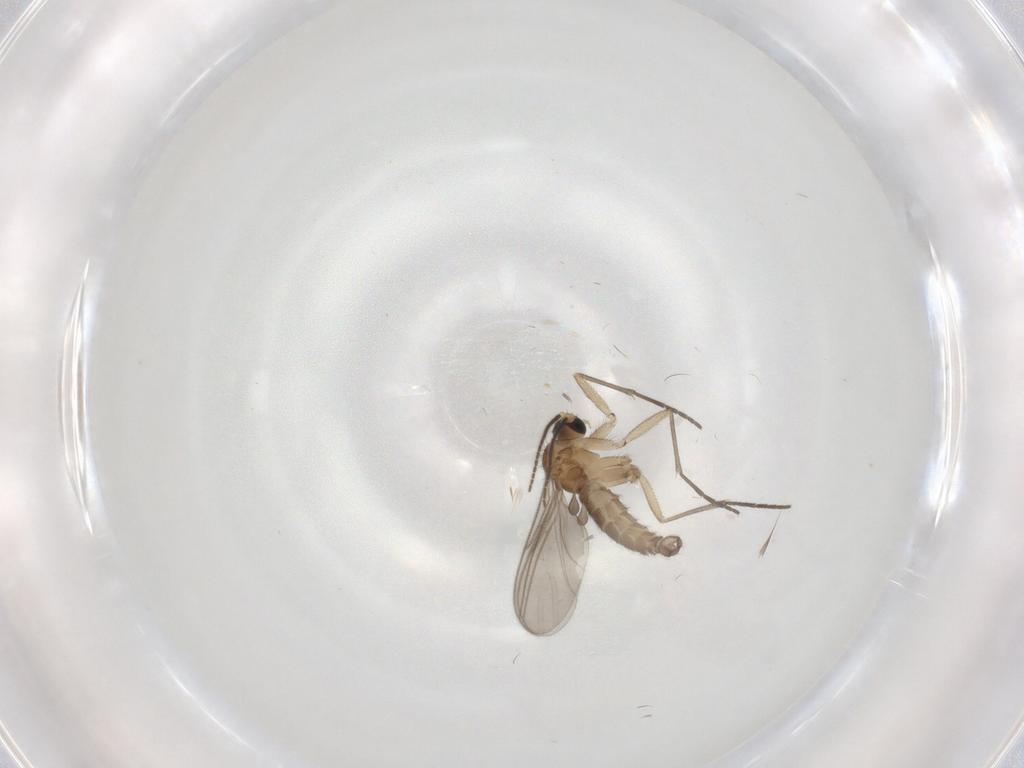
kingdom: Animalia
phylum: Arthropoda
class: Insecta
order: Diptera
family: Sciaridae
